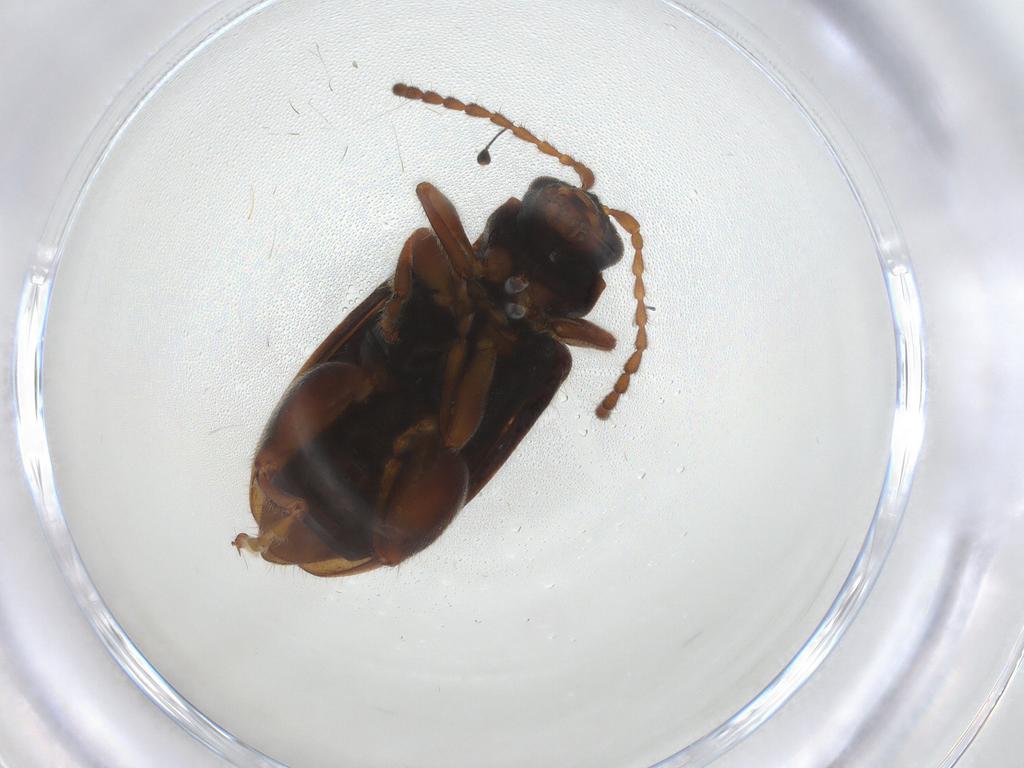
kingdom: Animalia
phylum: Arthropoda
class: Insecta
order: Coleoptera
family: Chrysomelidae
